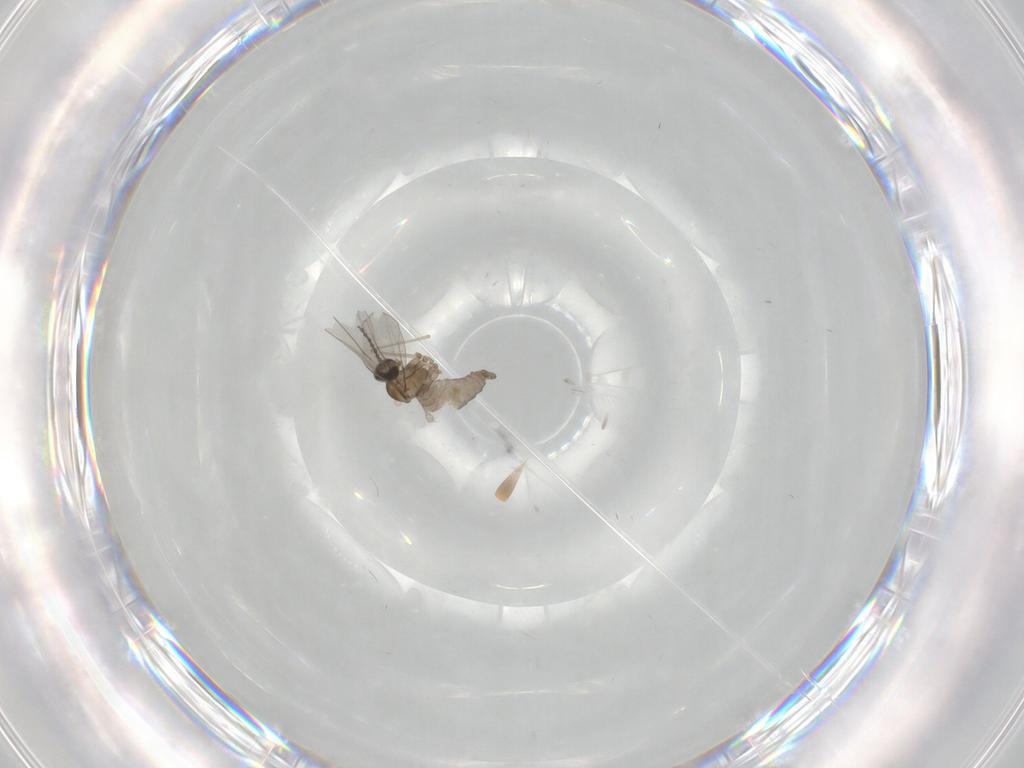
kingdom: Animalia
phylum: Arthropoda
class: Insecta
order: Diptera
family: Cecidomyiidae
